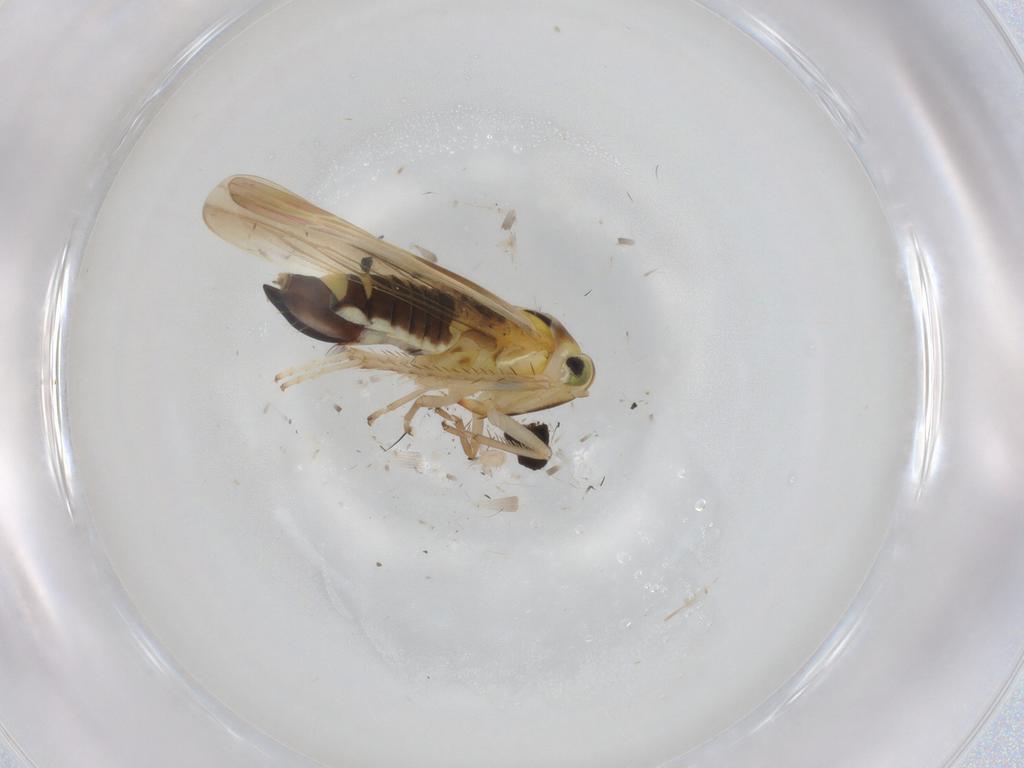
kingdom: Animalia
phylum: Arthropoda
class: Insecta
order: Hemiptera
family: Cicadellidae
